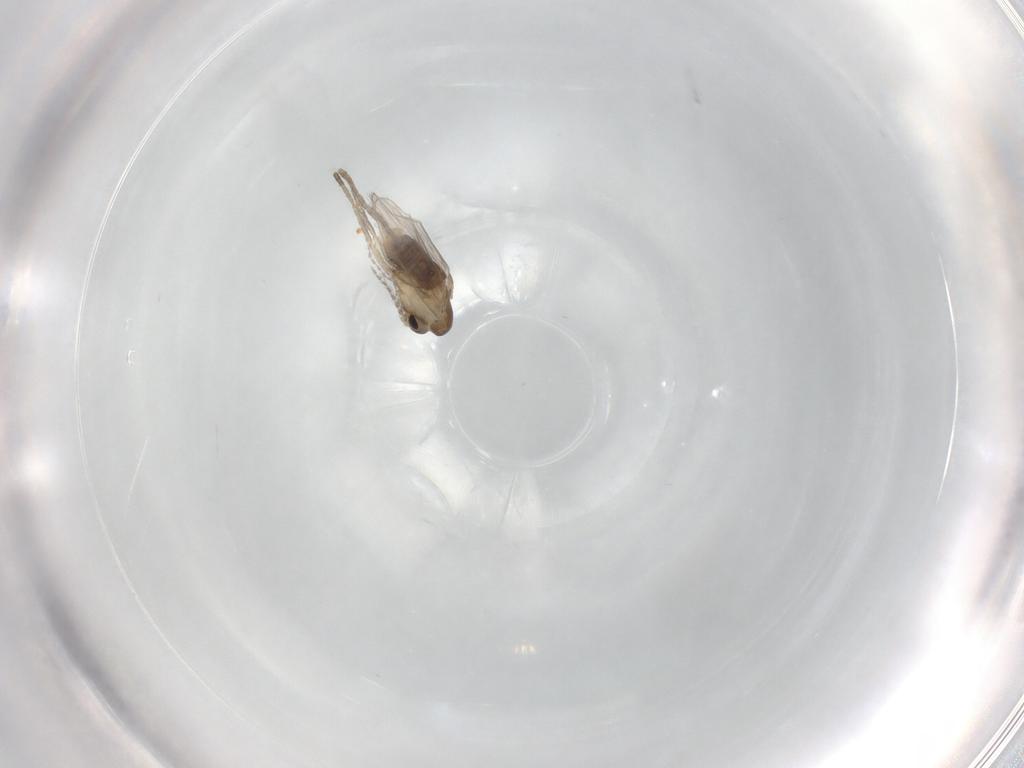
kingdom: Animalia
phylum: Arthropoda
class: Insecta
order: Diptera
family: Psychodidae
